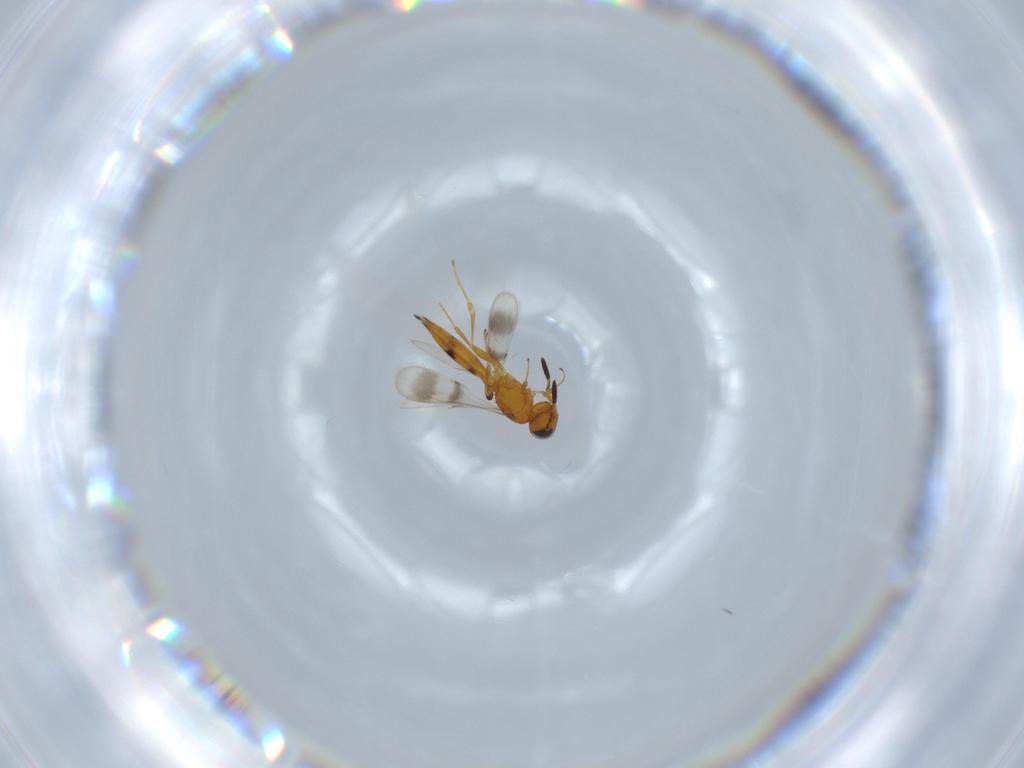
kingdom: Animalia
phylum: Arthropoda
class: Insecta
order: Hymenoptera
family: Scelionidae
